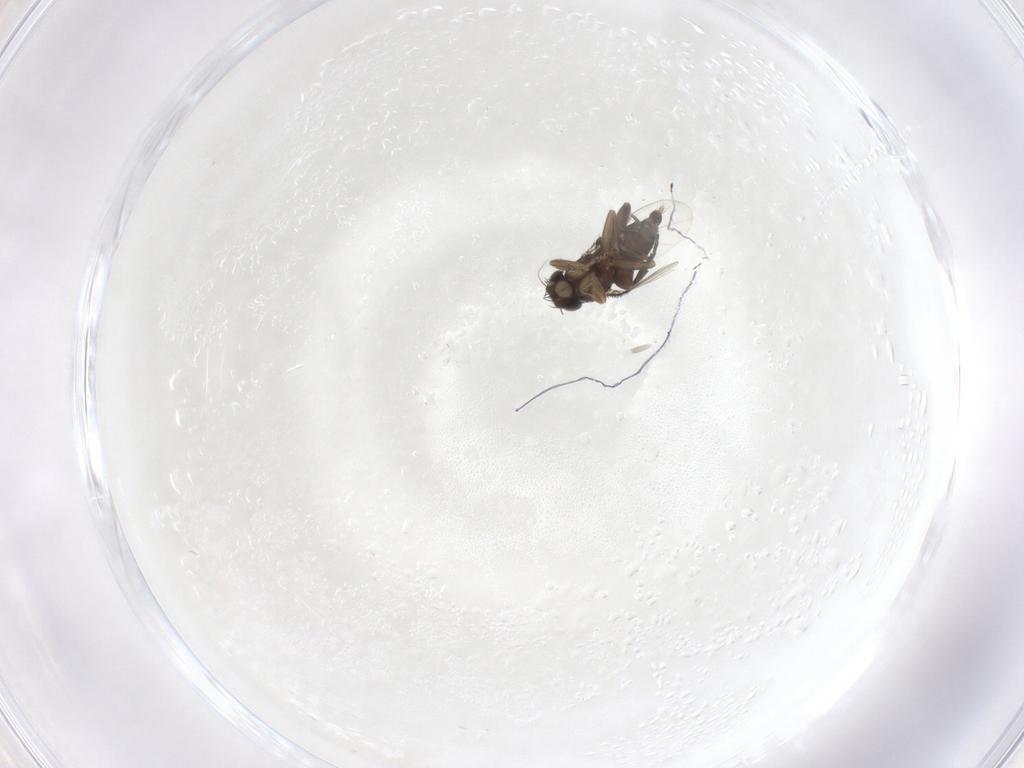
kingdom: Animalia
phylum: Arthropoda
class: Insecta
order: Diptera
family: Phoridae
